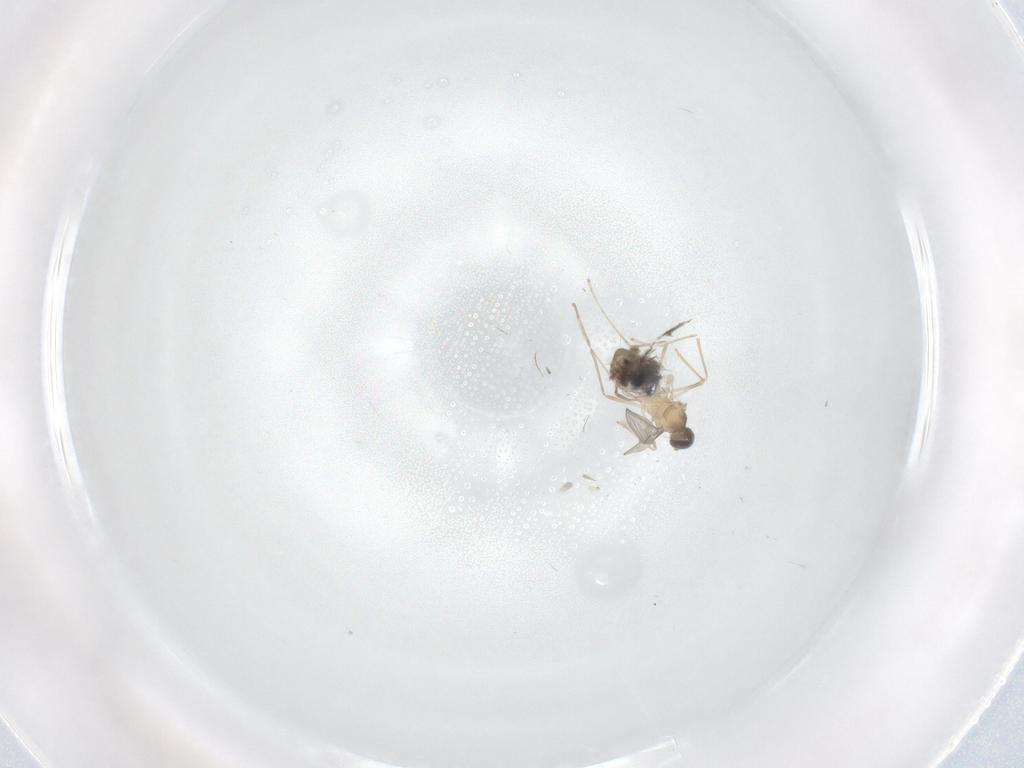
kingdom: Animalia
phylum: Arthropoda
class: Insecta
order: Diptera
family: Cecidomyiidae
